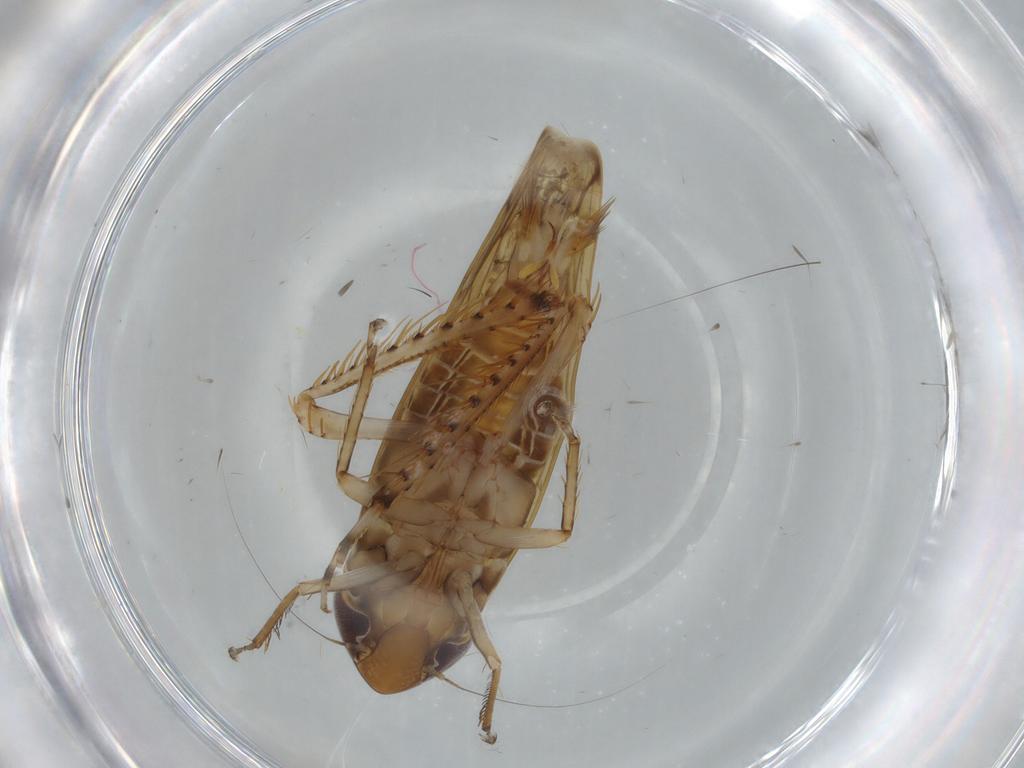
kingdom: Animalia
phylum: Arthropoda
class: Insecta
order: Hemiptera
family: Cicadellidae
